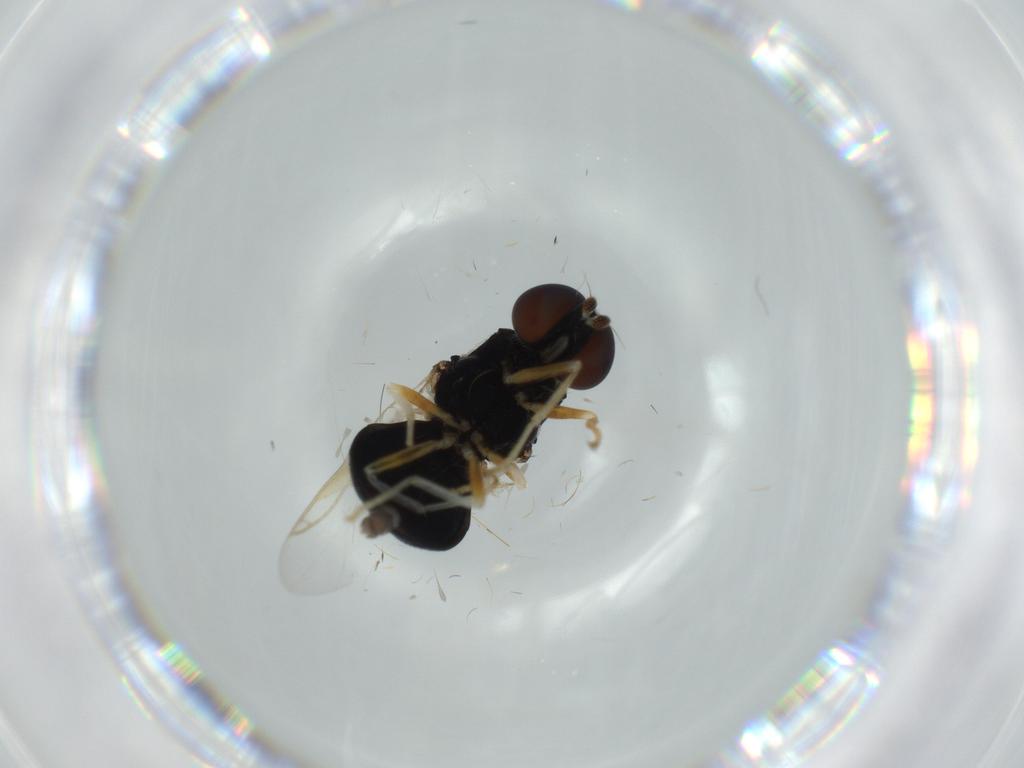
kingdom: Animalia
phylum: Arthropoda
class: Insecta
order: Diptera
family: Stratiomyidae
